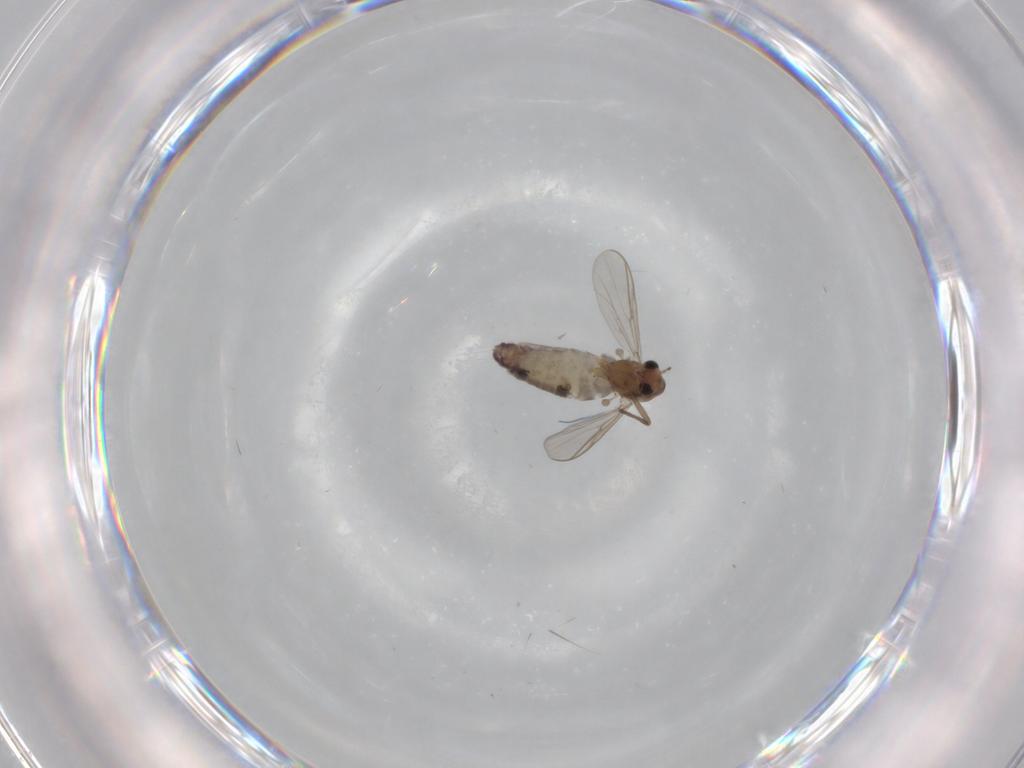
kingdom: Animalia
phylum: Arthropoda
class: Insecta
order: Diptera
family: Chironomidae
